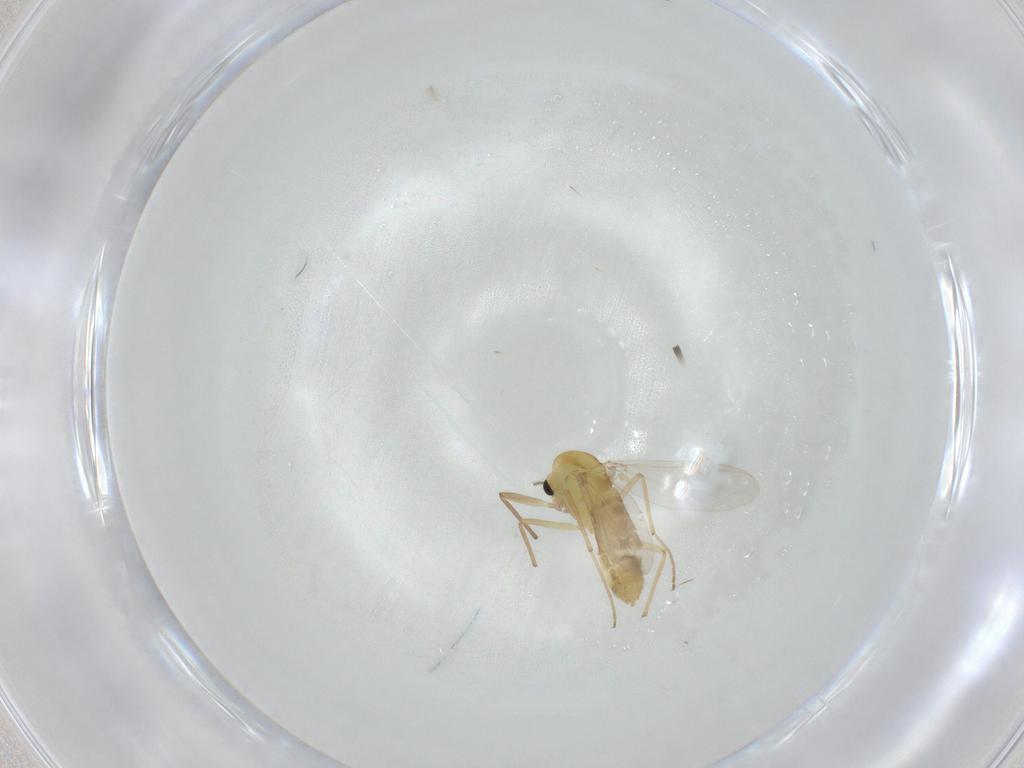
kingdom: Animalia
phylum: Arthropoda
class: Insecta
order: Diptera
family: Chironomidae
